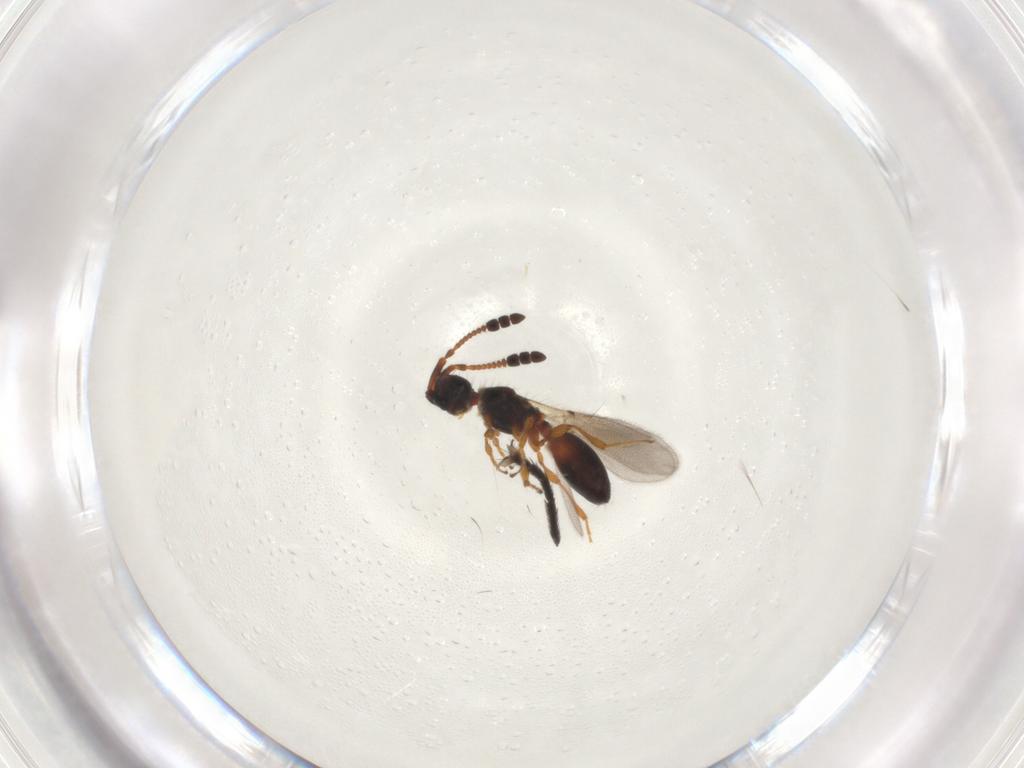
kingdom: Animalia
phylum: Arthropoda
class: Insecta
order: Hymenoptera
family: Diapriidae
